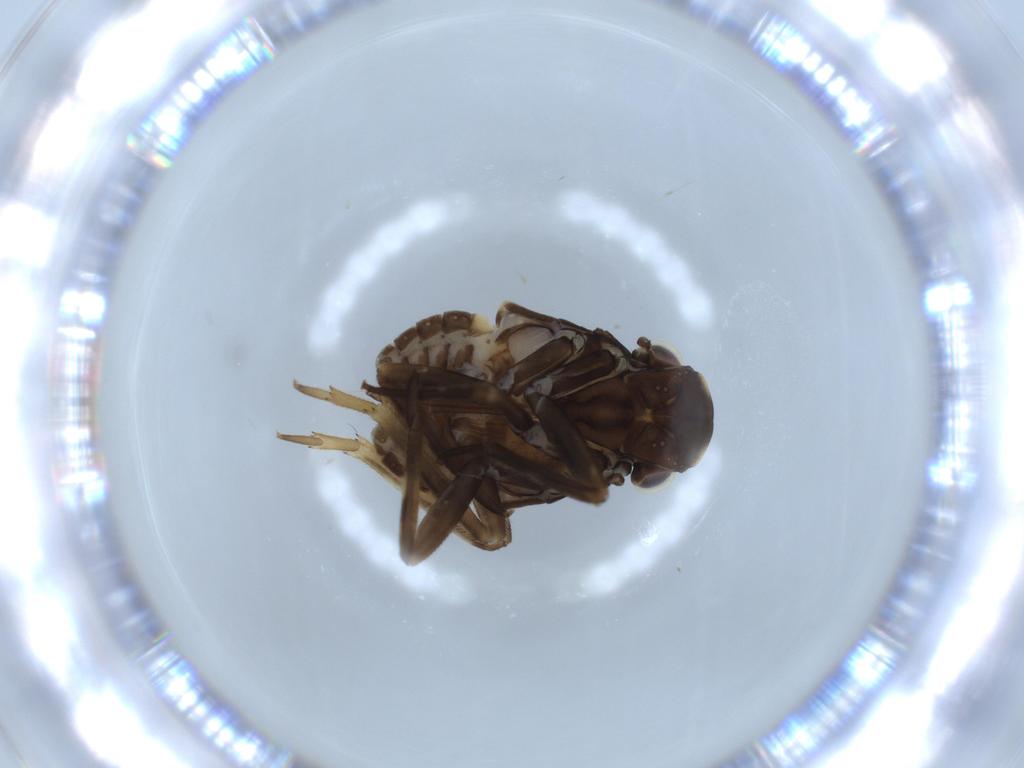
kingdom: Animalia
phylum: Arthropoda
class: Insecta
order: Hemiptera
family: Fulgoridae
